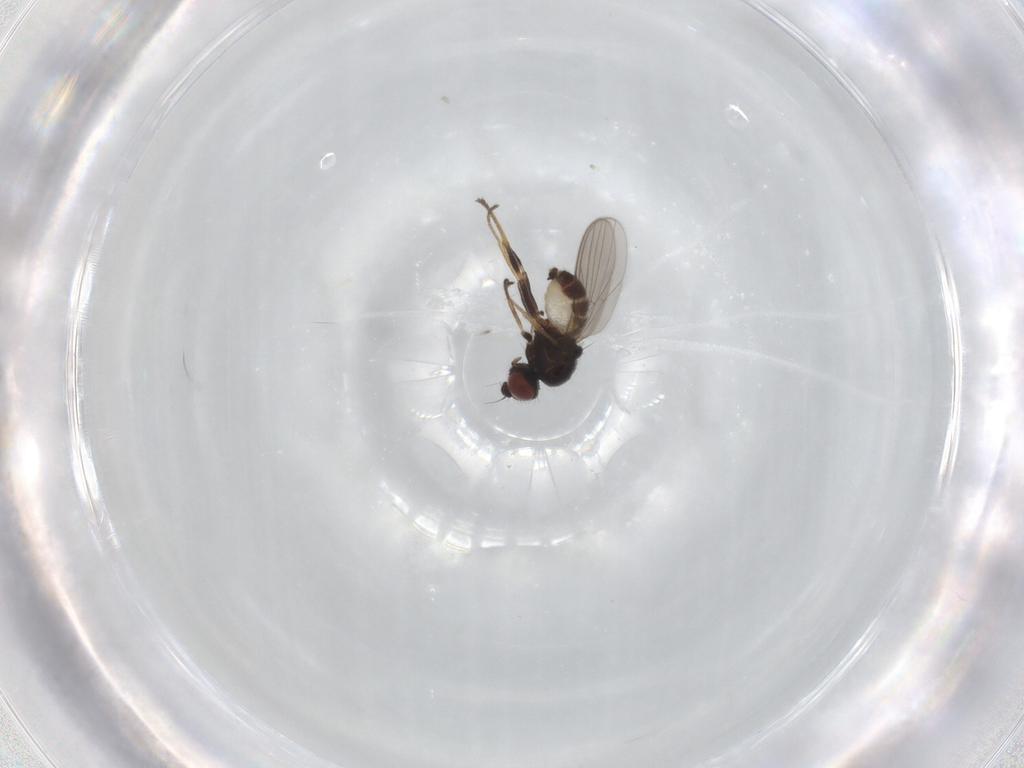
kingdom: Animalia
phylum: Arthropoda
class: Insecta
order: Diptera
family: Chloropidae
